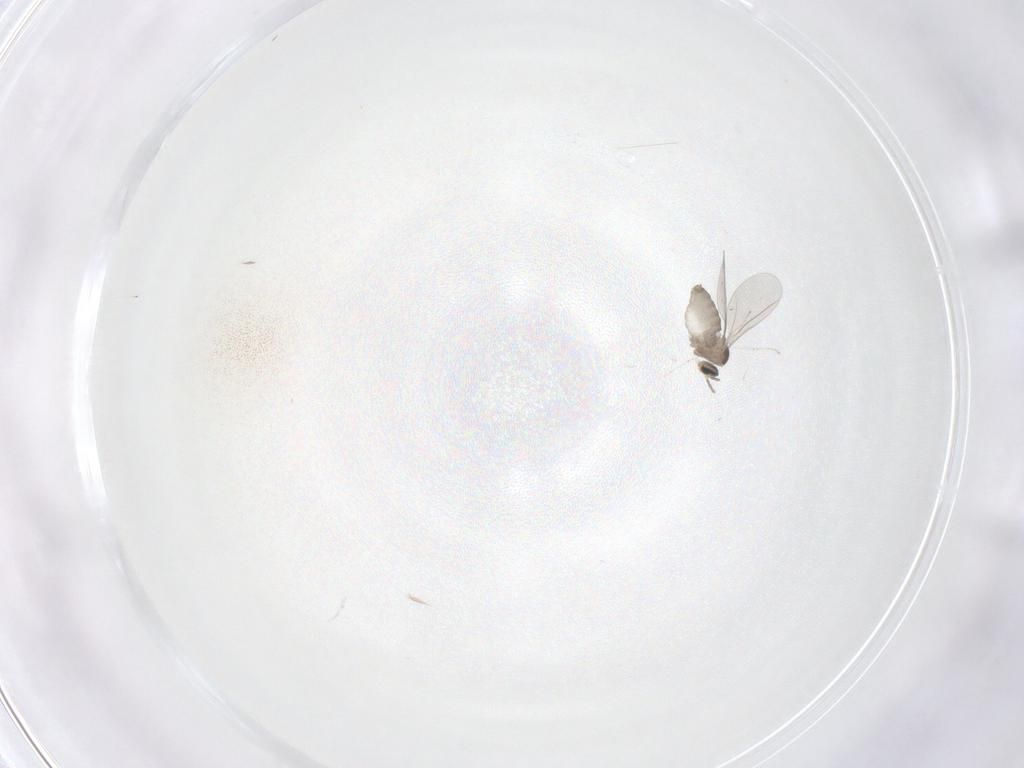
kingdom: Animalia
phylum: Arthropoda
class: Insecta
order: Diptera
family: Cecidomyiidae
